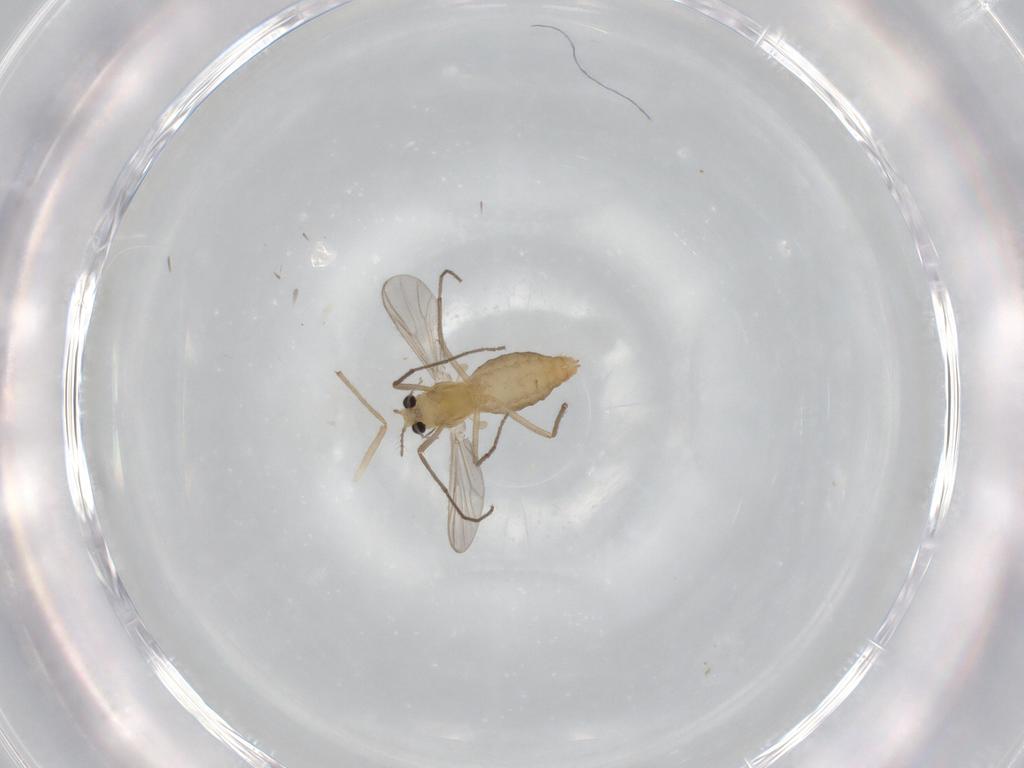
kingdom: Animalia
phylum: Arthropoda
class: Insecta
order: Diptera
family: Chironomidae
